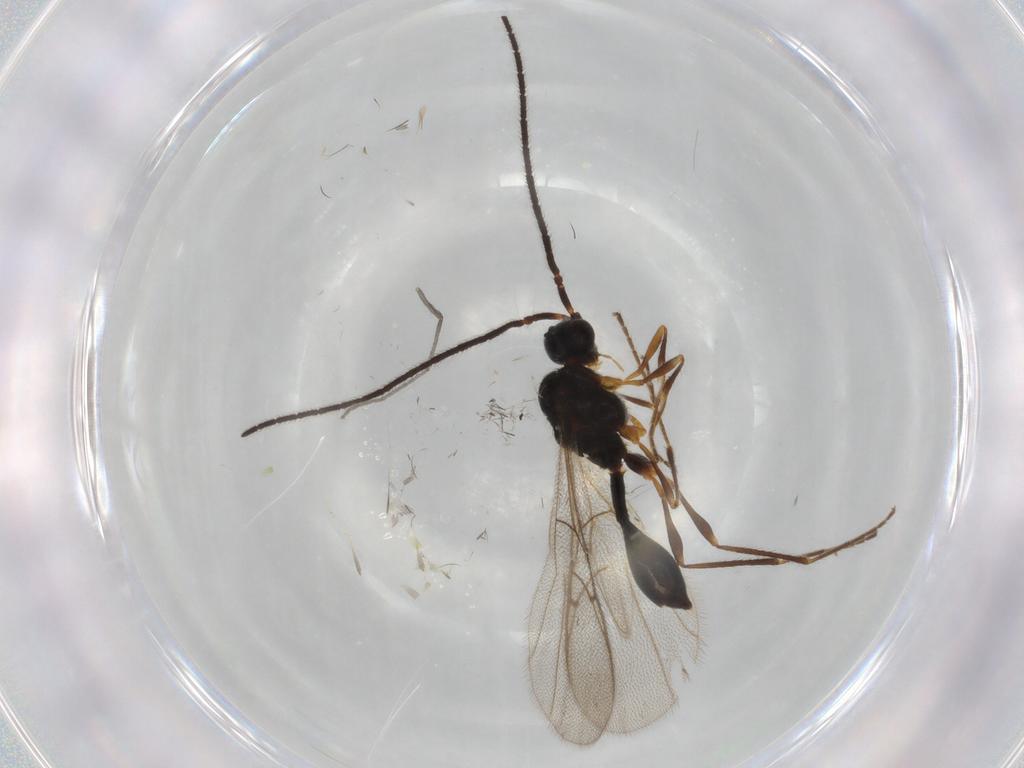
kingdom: Animalia
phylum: Arthropoda
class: Insecta
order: Hymenoptera
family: Diapriidae
